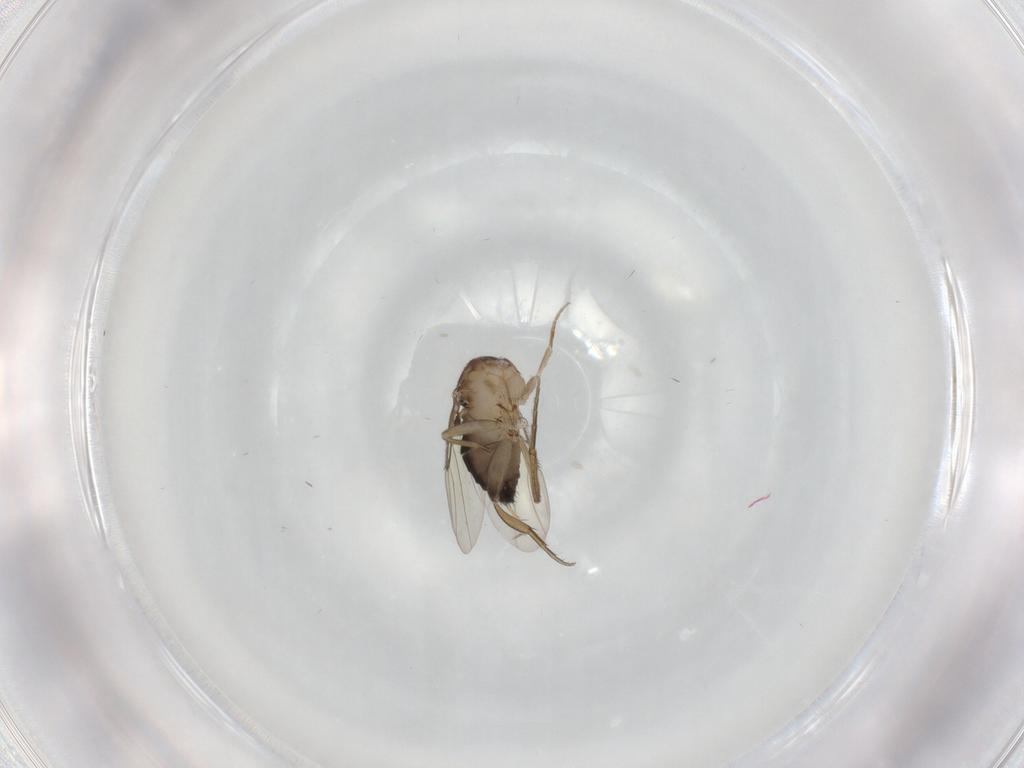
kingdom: Animalia
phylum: Arthropoda
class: Insecta
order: Diptera
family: Phoridae
